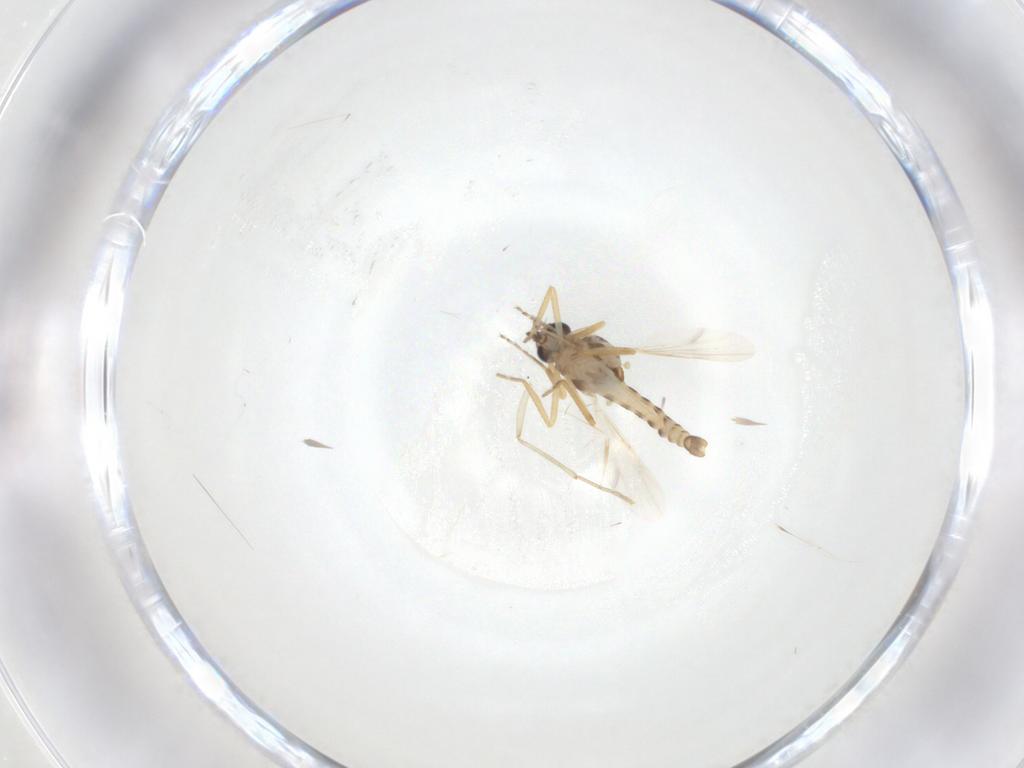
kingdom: Animalia
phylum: Arthropoda
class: Insecta
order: Diptera
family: Ceratopogonidae
